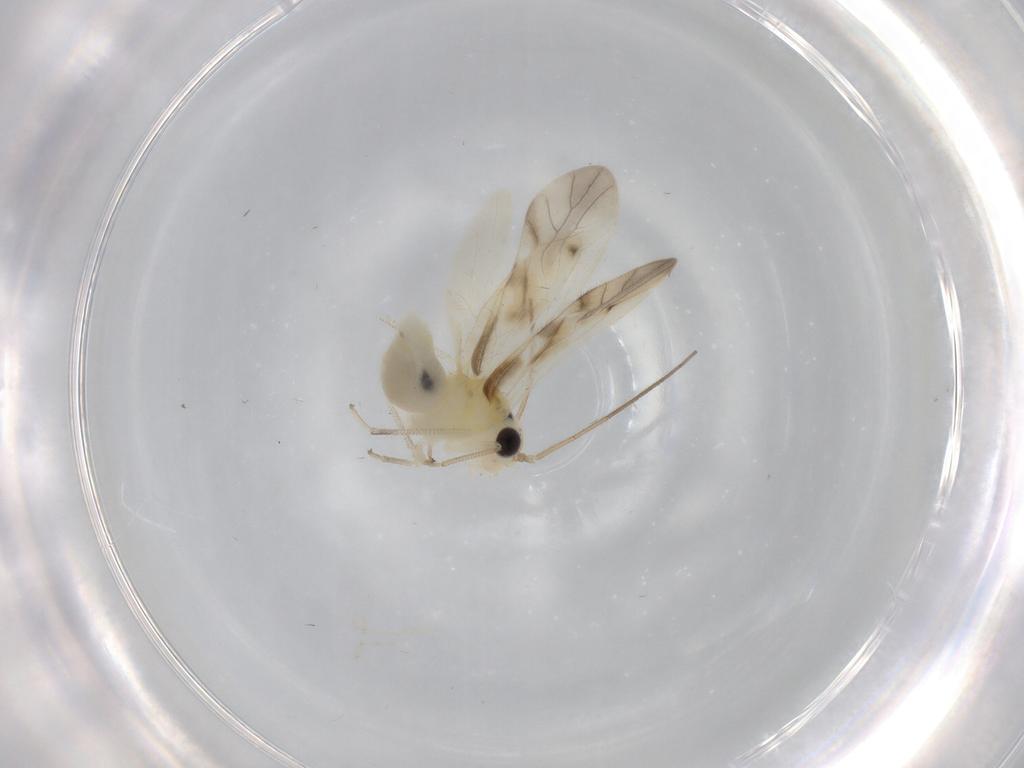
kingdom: Animalia
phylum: Arthropoda
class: Insecta
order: Psocodea
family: Caeciliusidae
